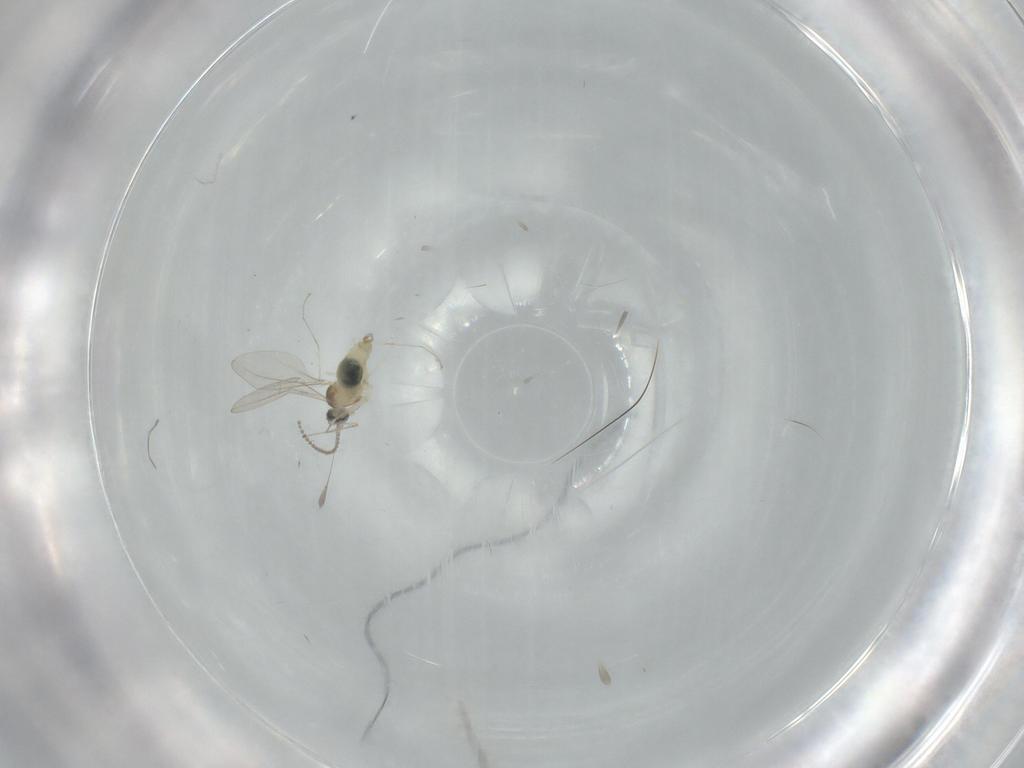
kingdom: Animalia
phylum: Arthropoda
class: Insecta
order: Diptera
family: Cecidomyiidae
